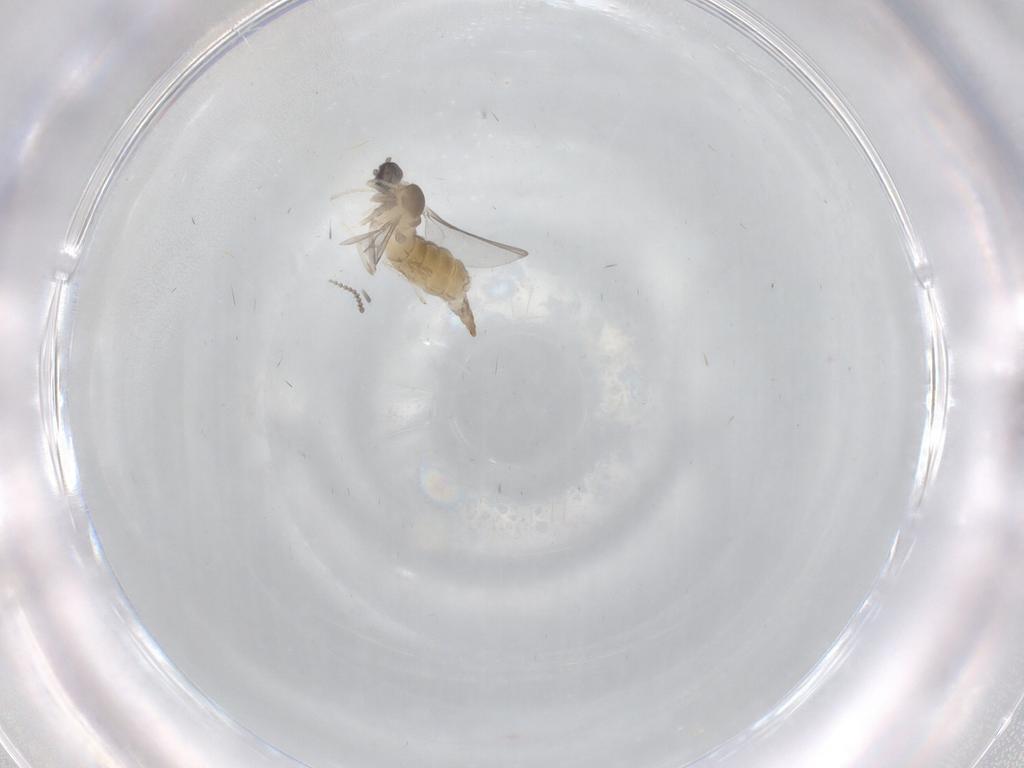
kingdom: Animalia
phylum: Arthropoda
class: Insecta
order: Diptera
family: Cecidomyiidae
